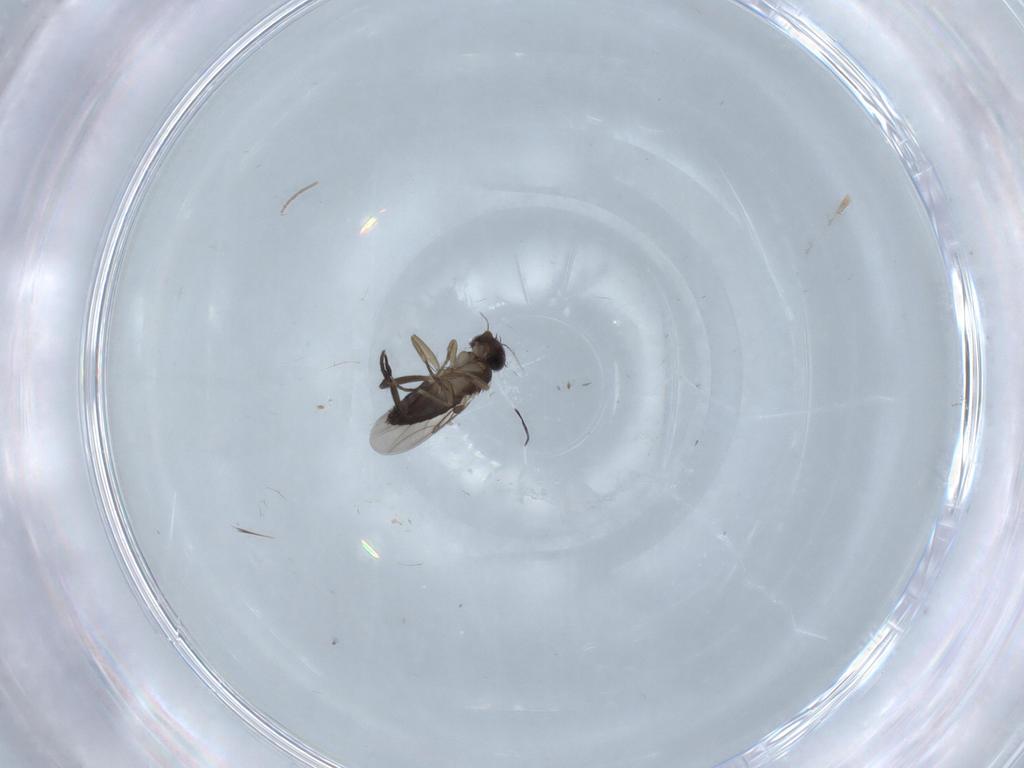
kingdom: Animalia
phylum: Arthropoda
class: Insecta
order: Diptera
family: Chironomidae
